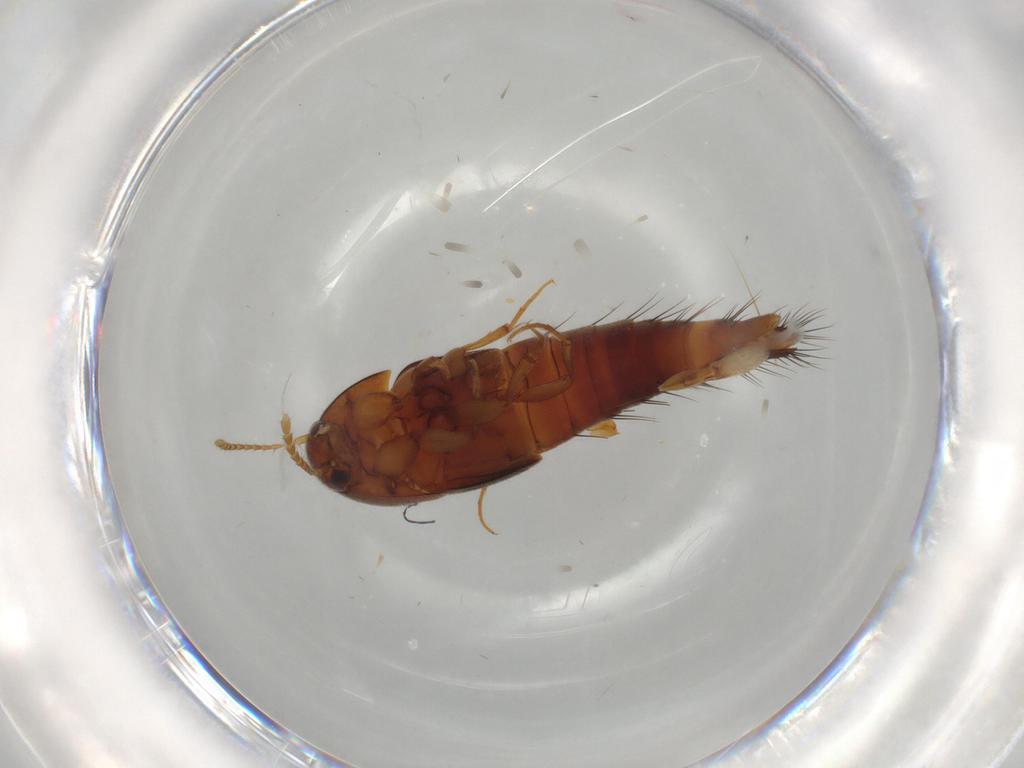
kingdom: Animalia
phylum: Arthropoda
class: Insecta
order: Coleoptera
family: Staphylinidae
